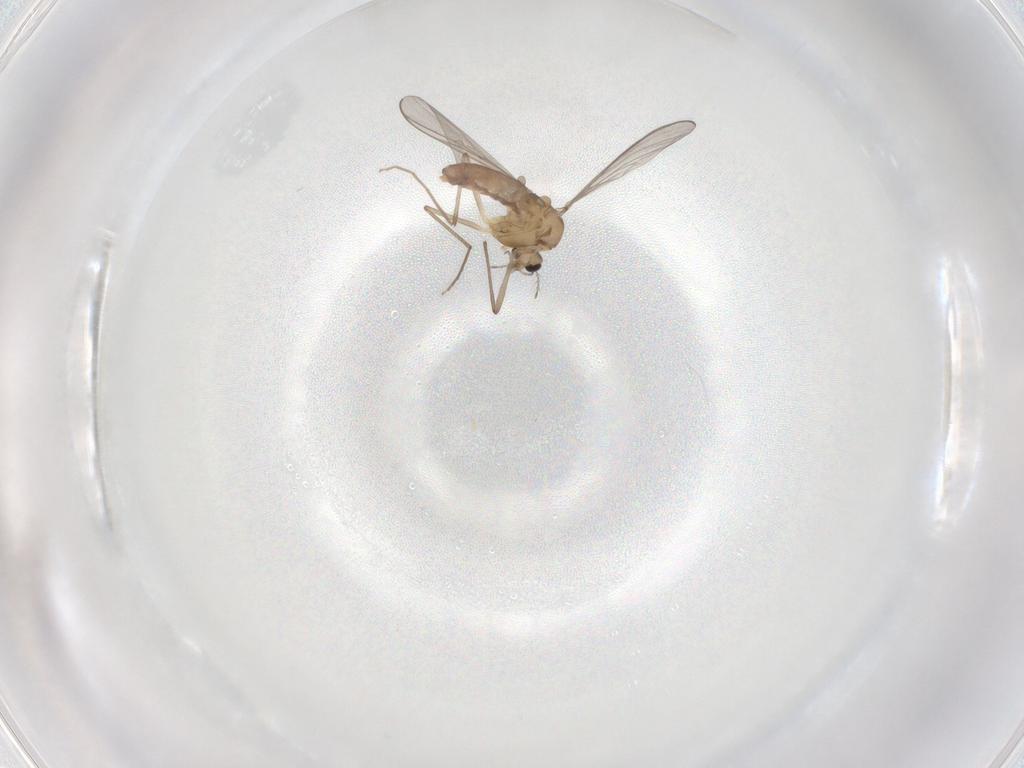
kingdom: Animalia
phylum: Arthropoda
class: Insecta
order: Diptera
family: Chironomidae
